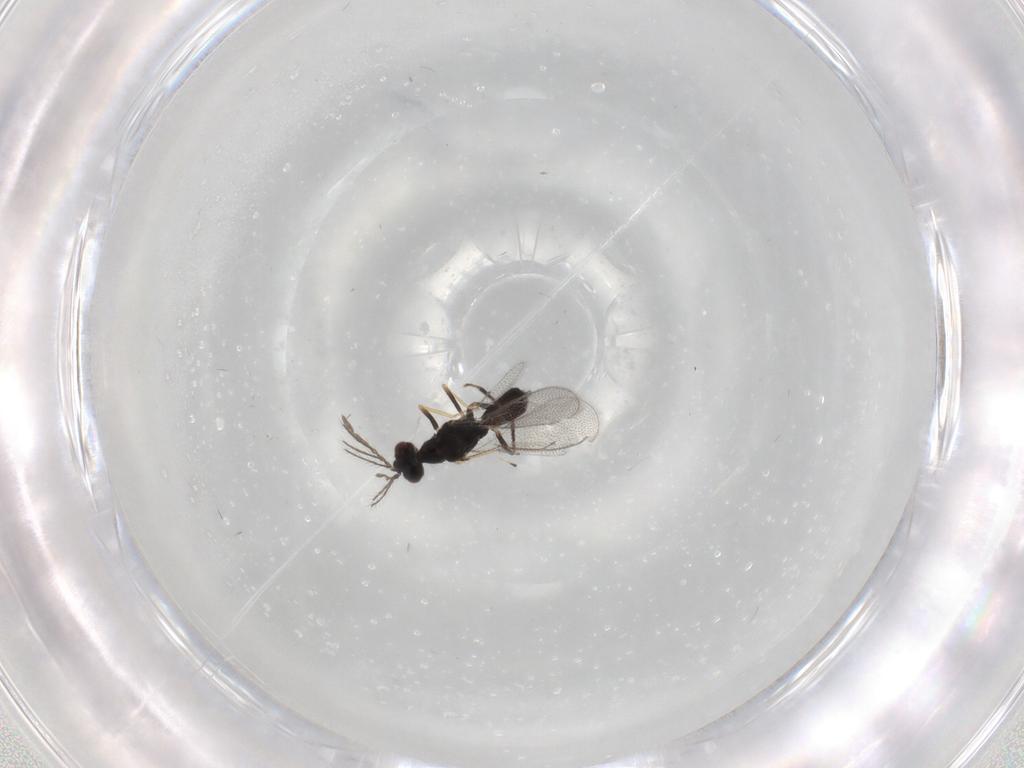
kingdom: Animalia
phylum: Arthropoda
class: Insecta
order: Hymenoptera
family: Eulophidae
